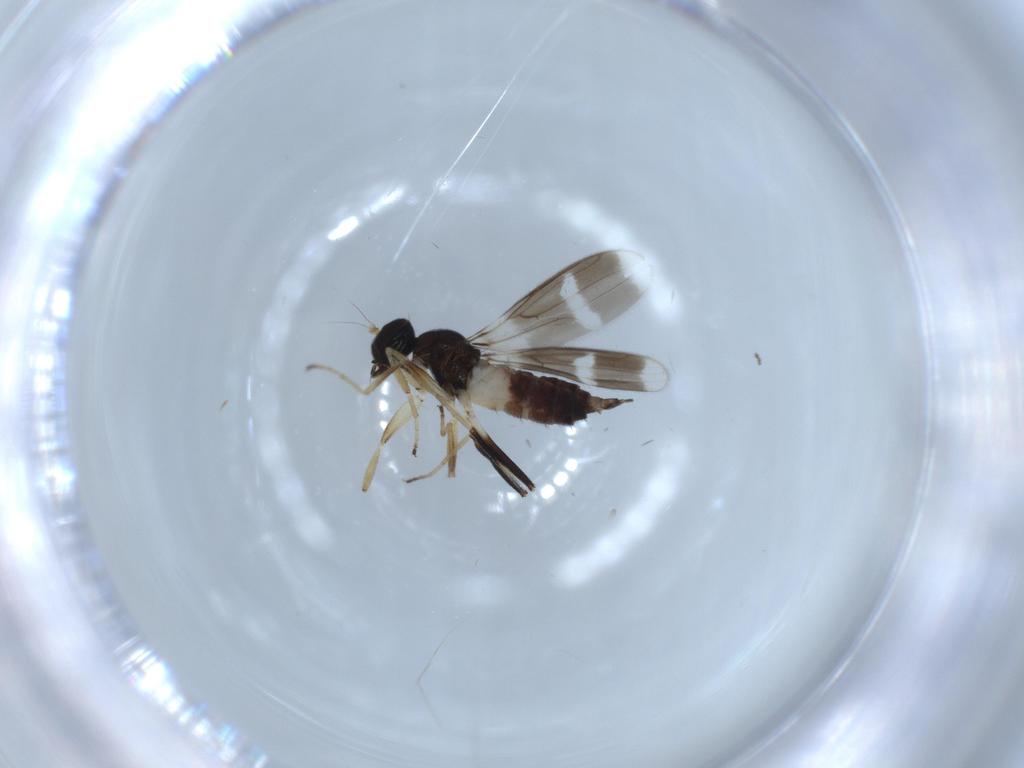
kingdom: Animalia
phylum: Arthropoda
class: Insecta
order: Diptera
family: Hybotidae
